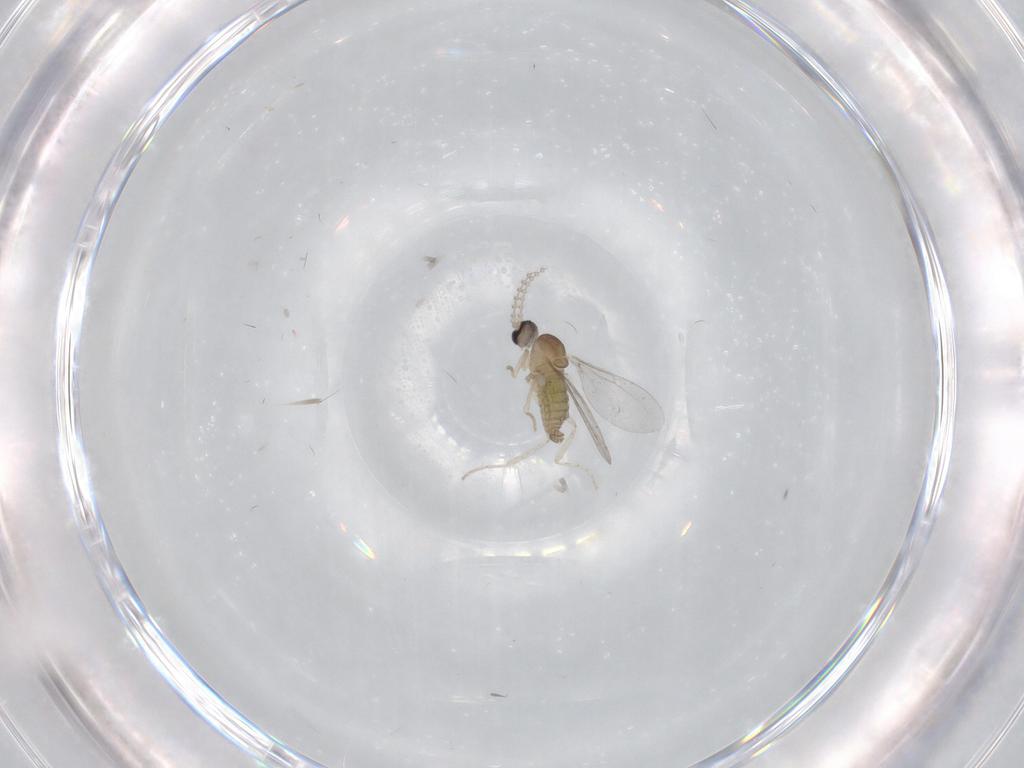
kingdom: Animalia
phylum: Arthropoda
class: Insecta
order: Diptera
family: Cecidomyiidae
